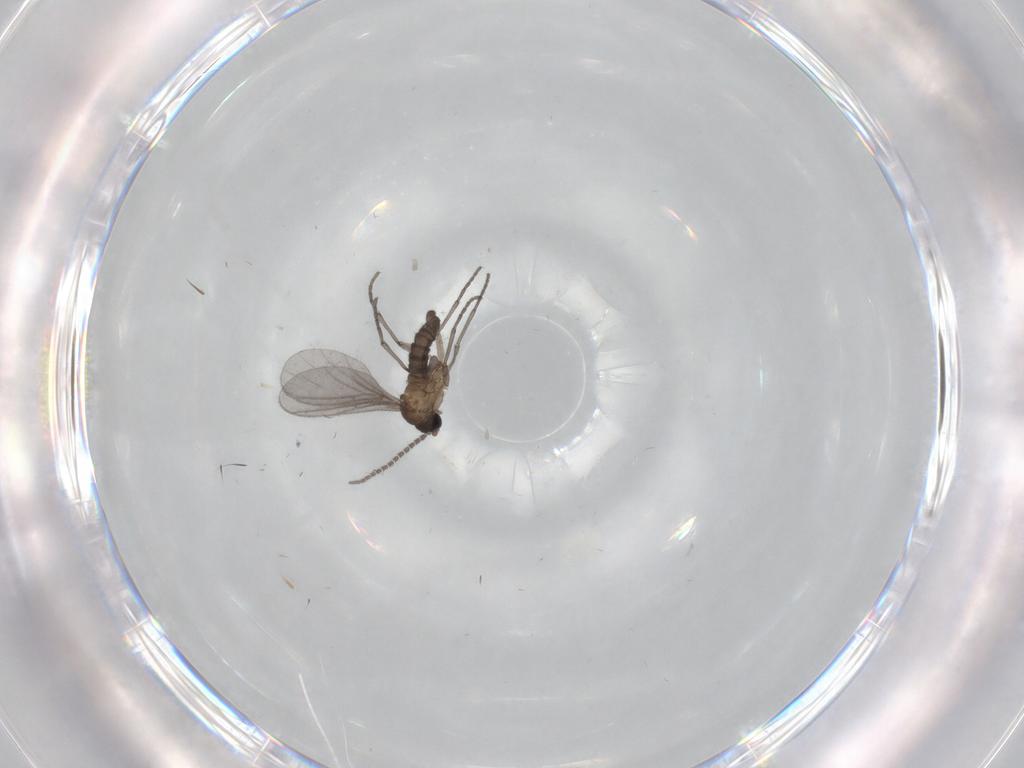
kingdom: Animalia
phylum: Arthropoda
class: Insecta
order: Diptera
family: Sciaridae
